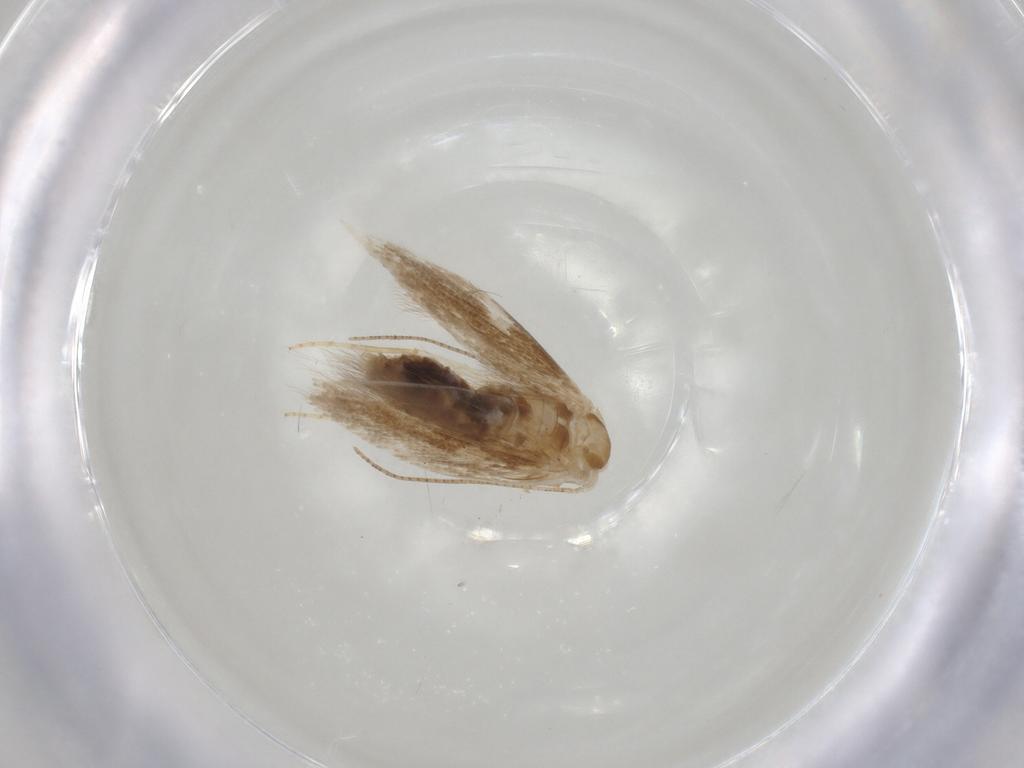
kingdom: Animalia
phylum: Arthropoda
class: Insecta
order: Lepidoptera
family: Bucculatricidae
